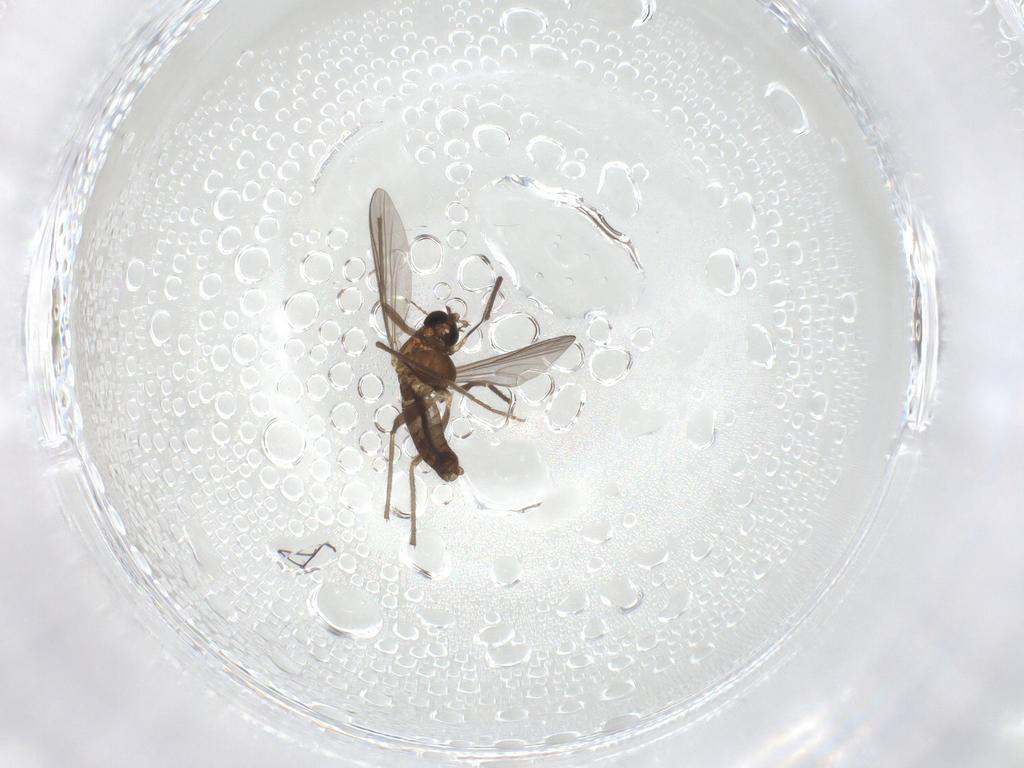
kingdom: Animalia
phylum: Arthropoda
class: Insecta
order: Diptera
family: Chironomidae
